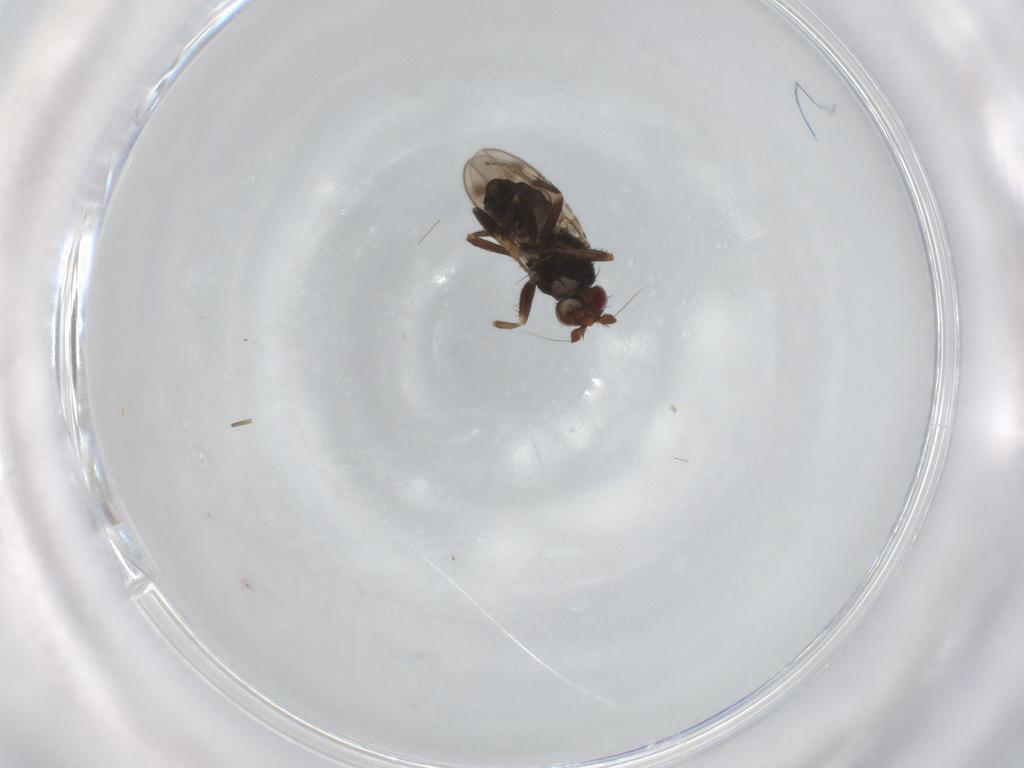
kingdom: Animalia
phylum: Arthropoda
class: Insecta
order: Diptera
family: Sphaeroceridae
